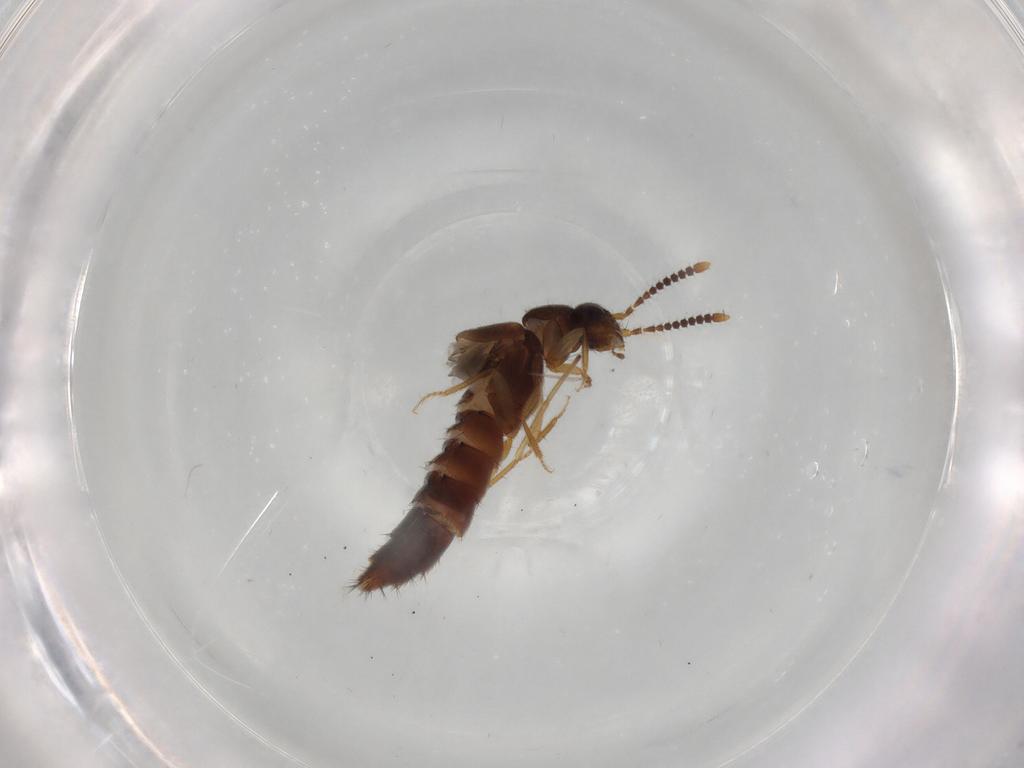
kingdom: Animalia
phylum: Arthropoda
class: Insecta
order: Coleoptera
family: Staphylinidae
